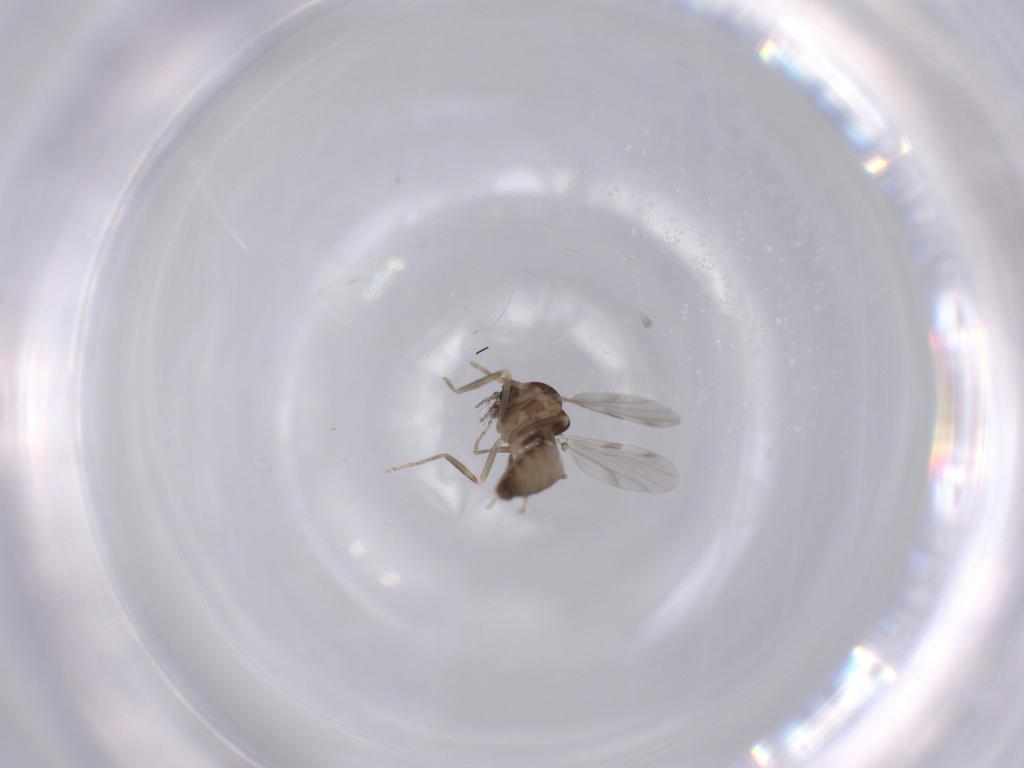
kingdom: Animalia
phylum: Arthropoda
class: Insecta
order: Diptera
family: Ceratopogonidae
